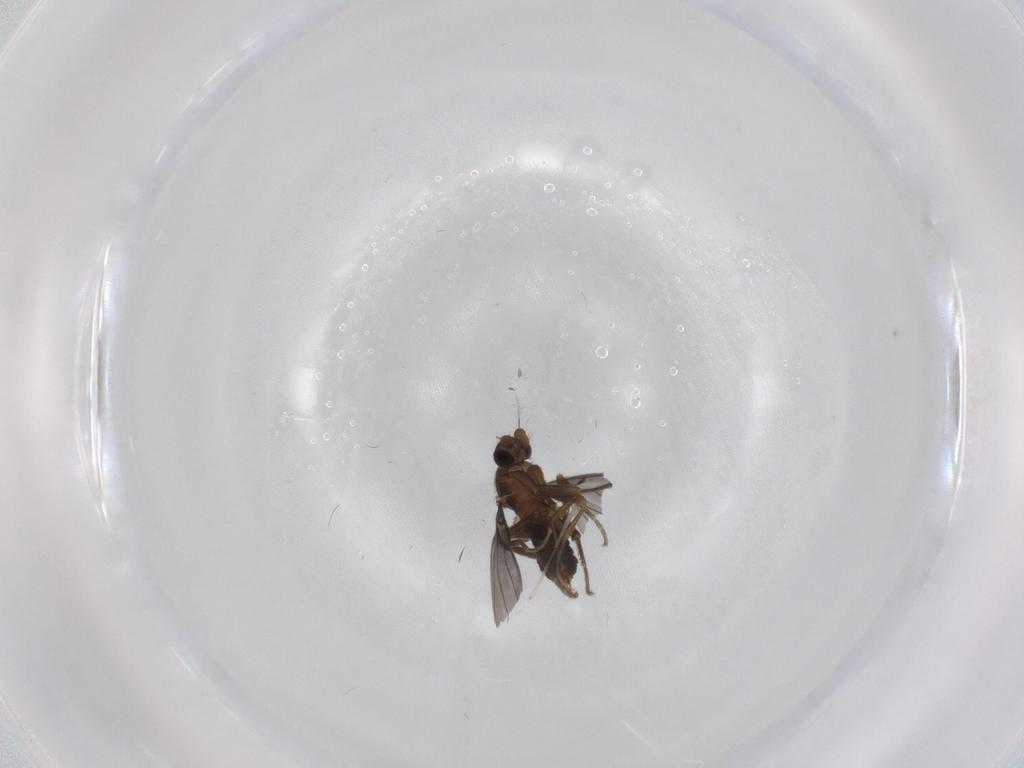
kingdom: Animalia
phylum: Arthropoda
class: Insecta
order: Diptera
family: Phoridae
